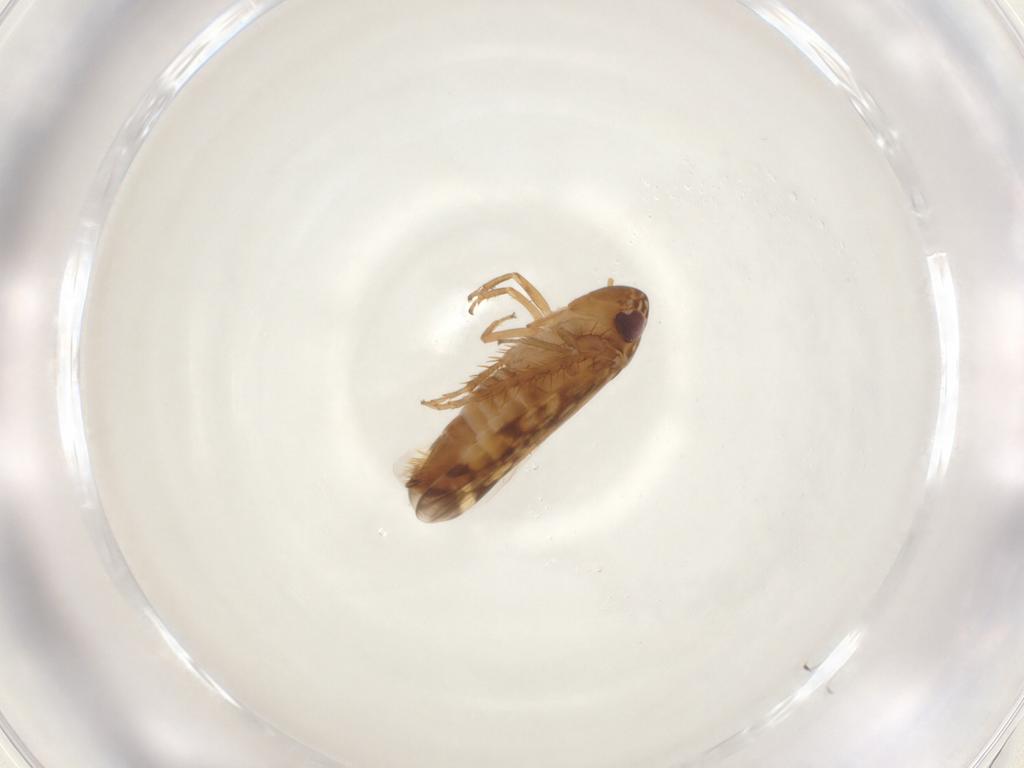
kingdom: Animalia
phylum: Arthropoda
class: Insecta
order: Hemiptera
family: Cicadellidae
